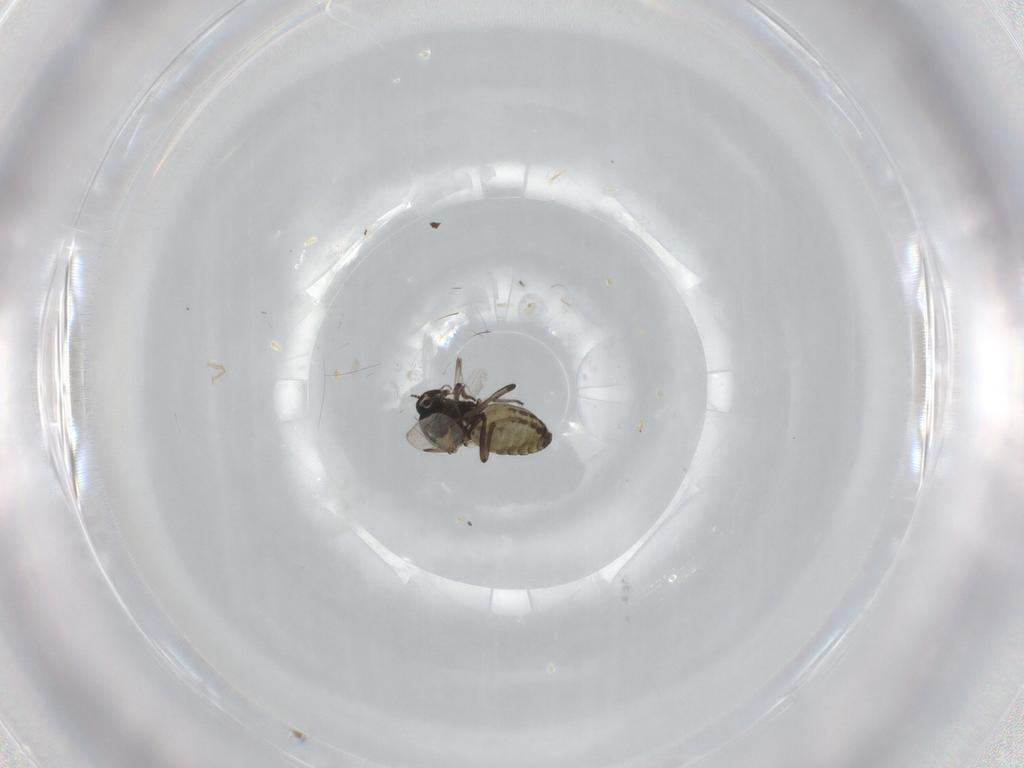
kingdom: Animalia
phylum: Arthropoda
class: Insecta
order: Diptera
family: Ceratopogonidae
